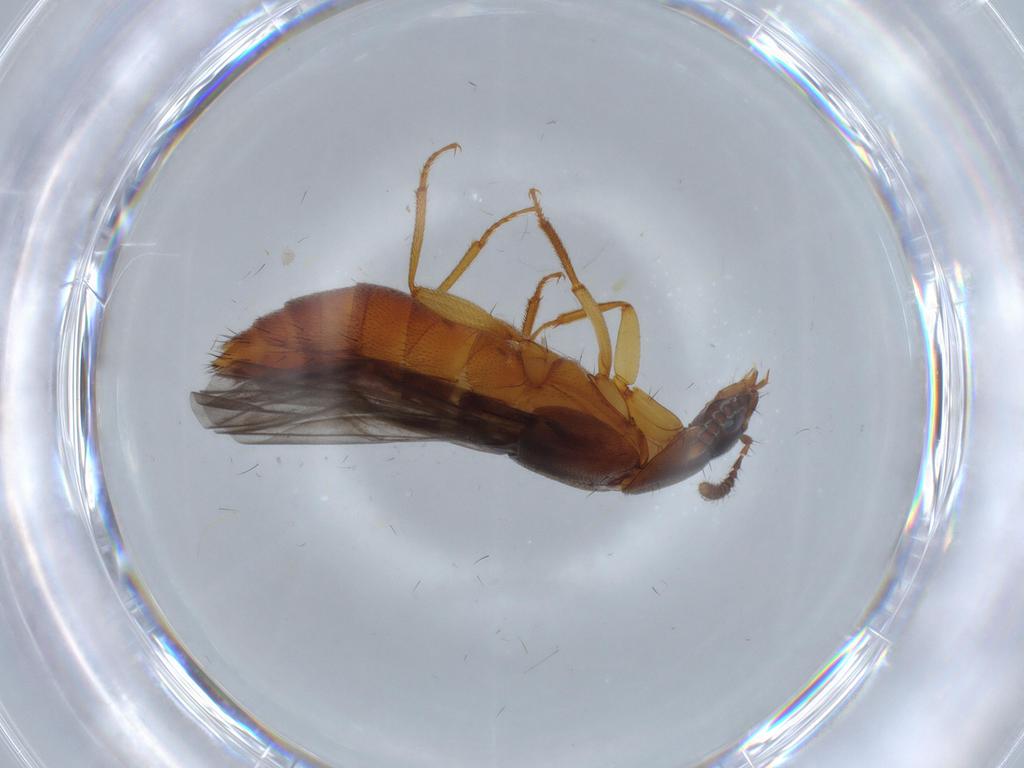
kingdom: Animalia
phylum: Arthropoda
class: Insecta
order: Coleoptera
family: Staphylinidae
